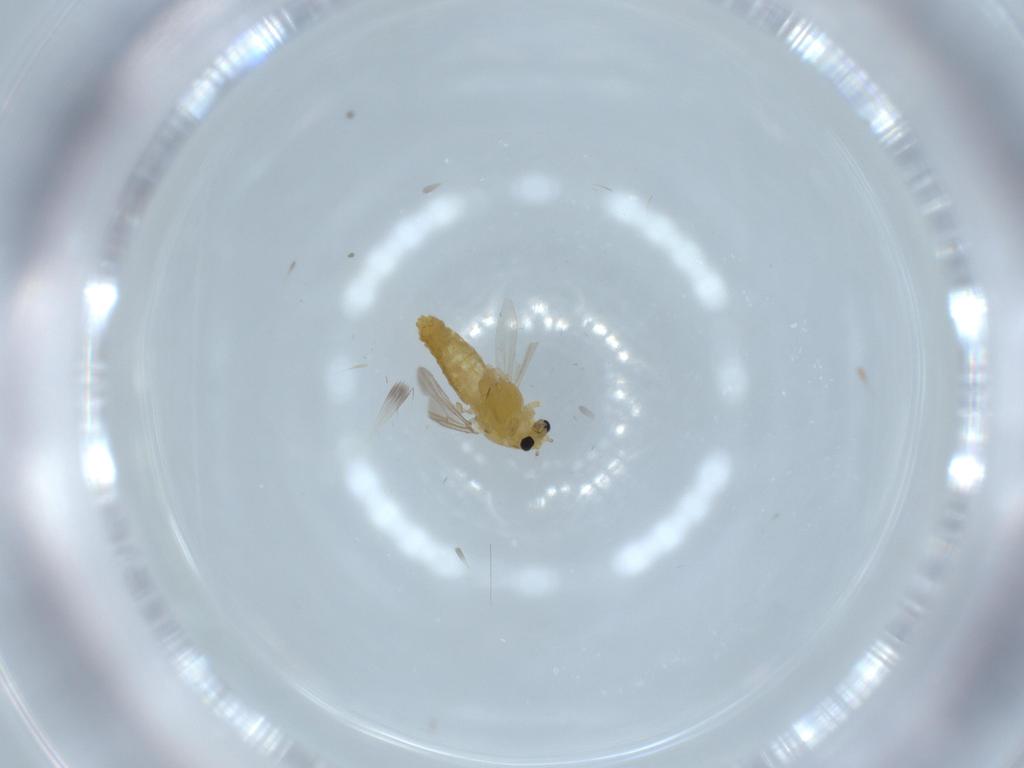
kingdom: Animalia
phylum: Arthropoda
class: Insecta
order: Diptera
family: Chironomidae
